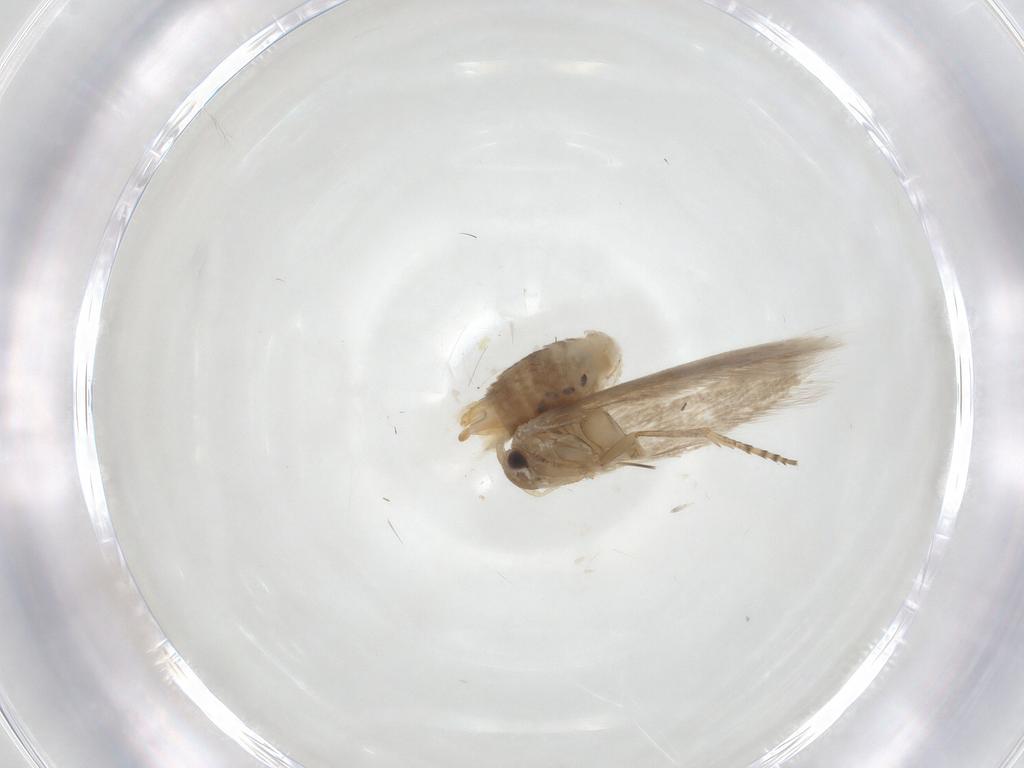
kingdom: Animalia
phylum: Arthropoda
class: Insecta
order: Lepidoptera
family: Bucculatricidae
